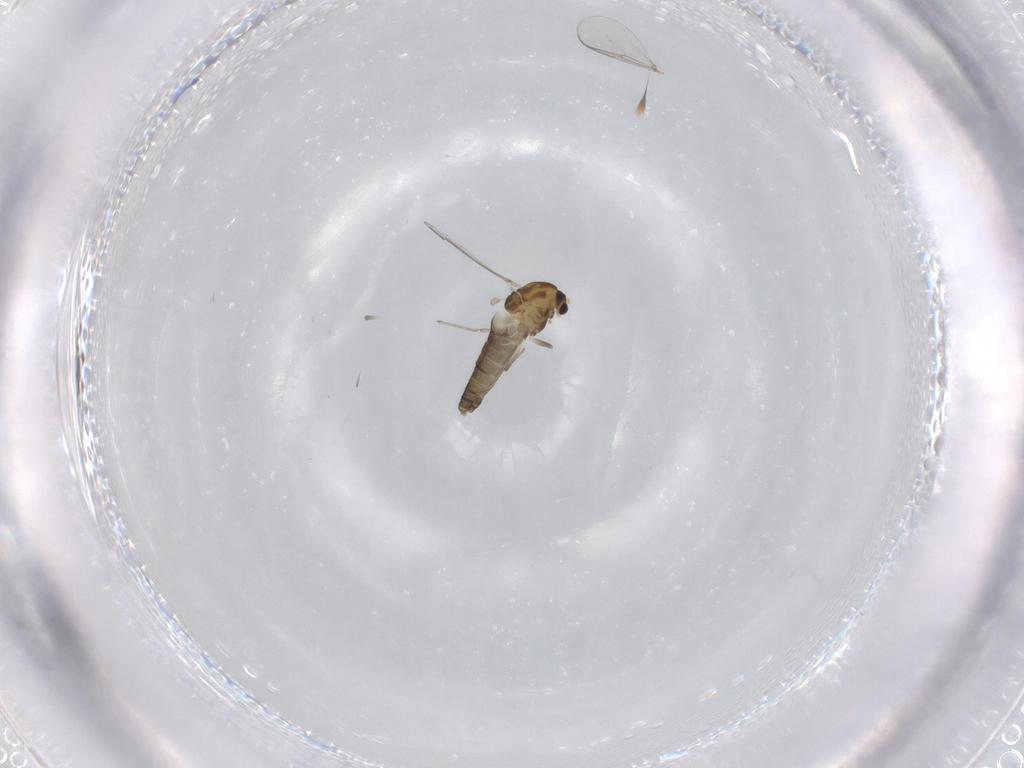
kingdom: Animalia
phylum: Arthropoda
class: Insecta
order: Diptera
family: Chironomidae
